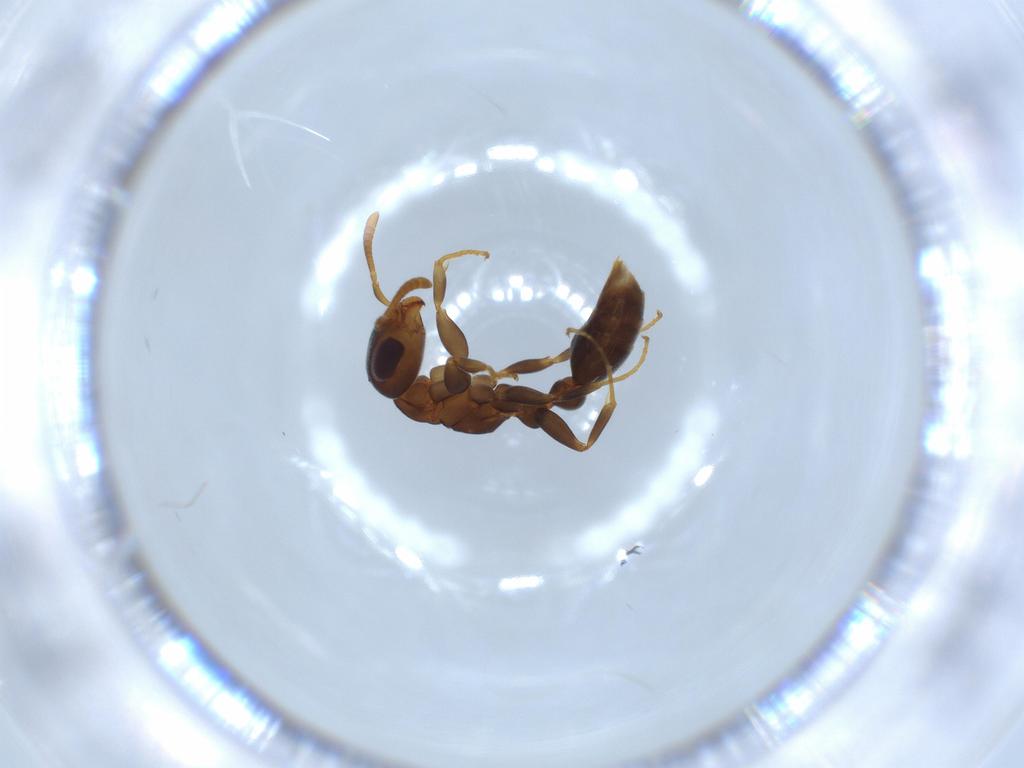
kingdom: Animalia
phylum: Arthropoda
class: Insecta
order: Hymenoptera
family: Formicidae
